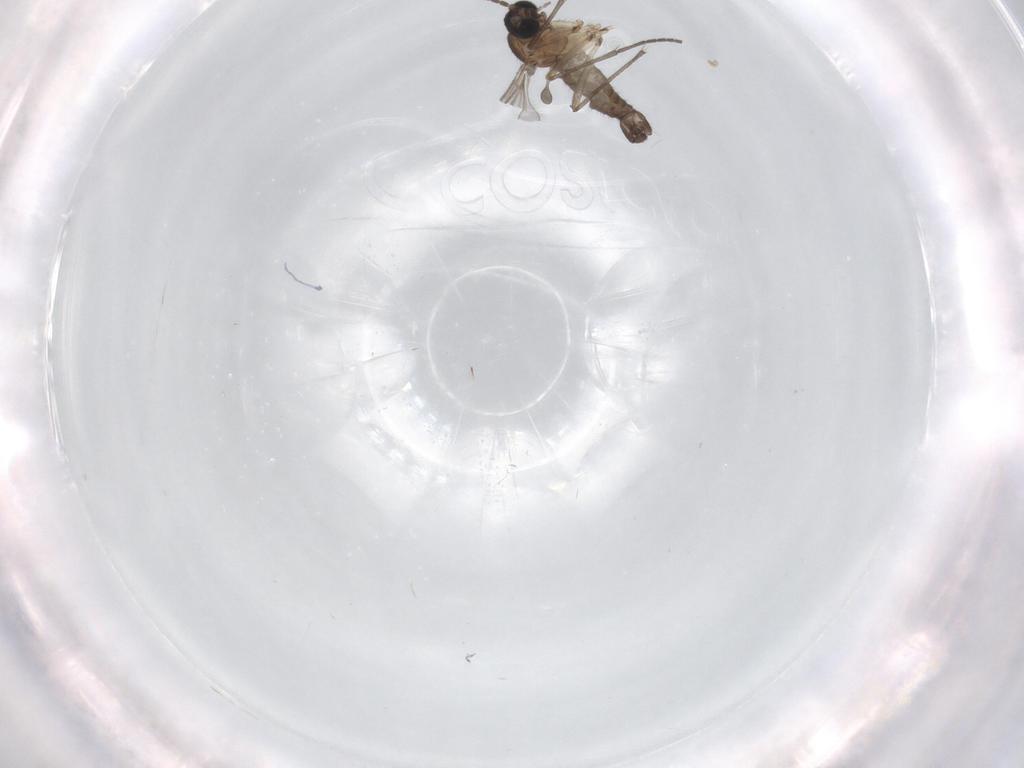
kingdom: Animalia
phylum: Arthropoda
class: Insecta
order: Diptera
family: Sciaridae
